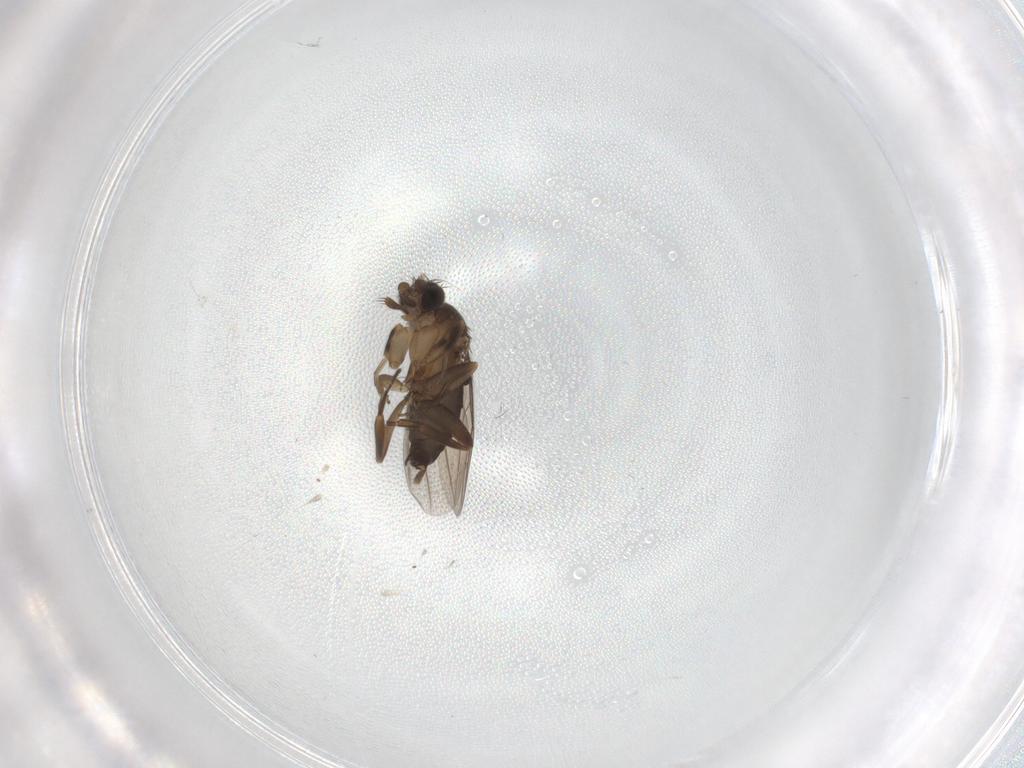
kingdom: Animalia
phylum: Arthropoda
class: Insecta
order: Diptera
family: Phoridae
